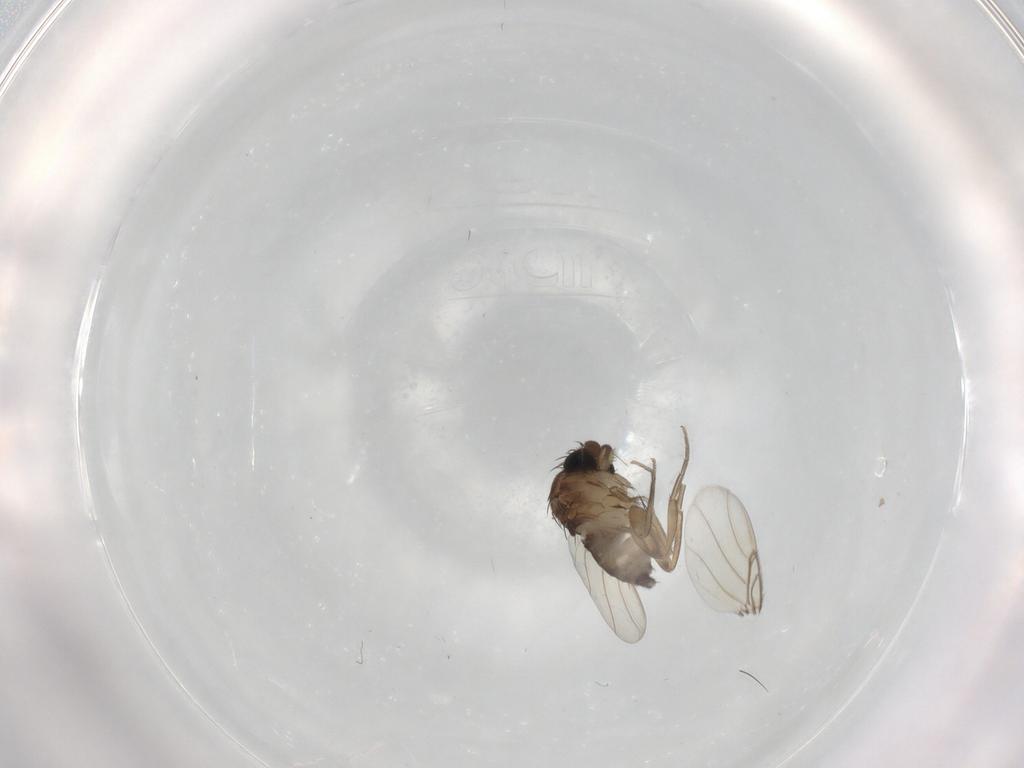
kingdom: Animalia
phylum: Arthropoda
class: Insecta
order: Diptera
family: Phoridae
